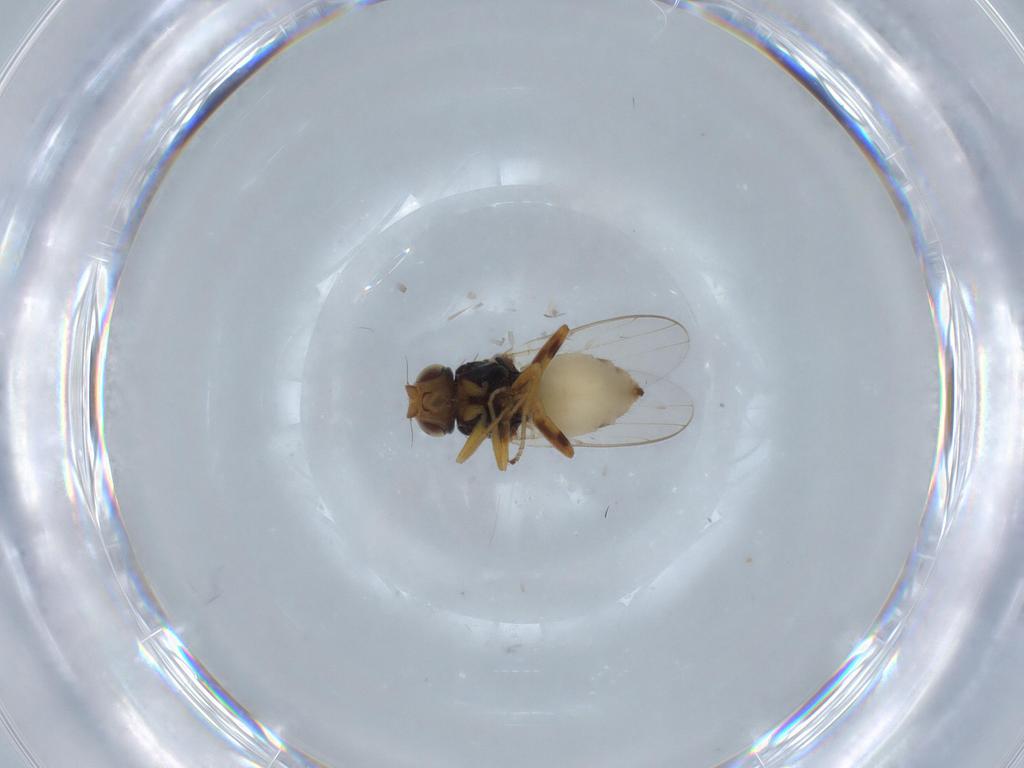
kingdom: Animalia
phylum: Arthropoda
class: Insecta
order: Diptera
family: Chloropidae
